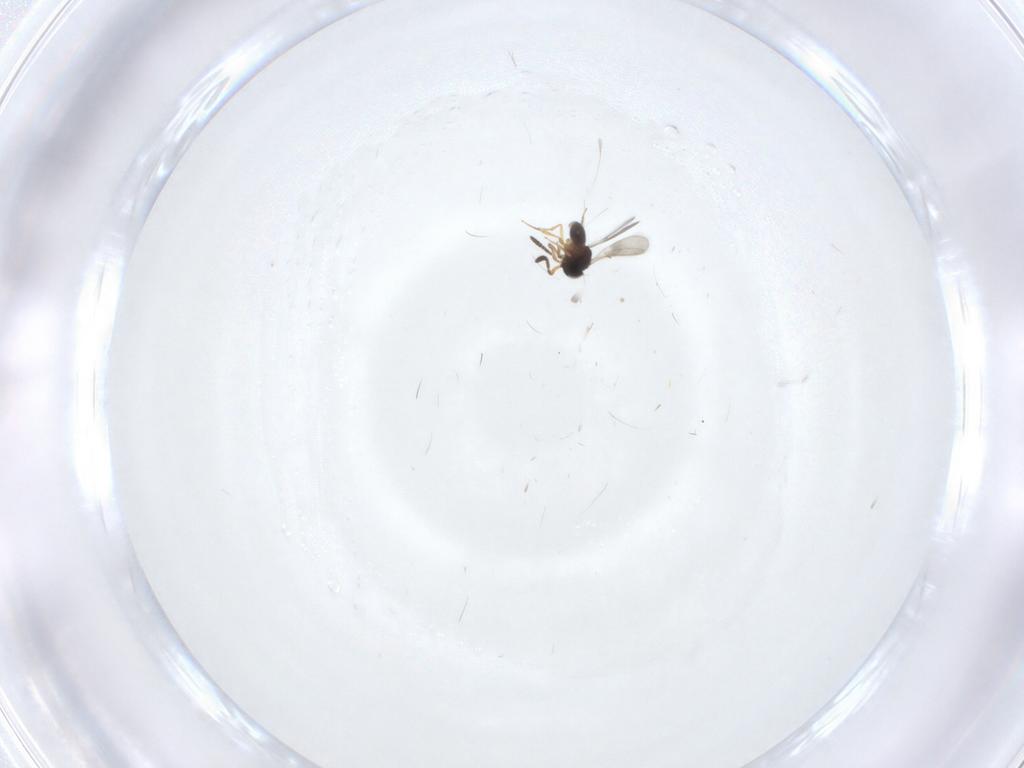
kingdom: Animalia
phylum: Arthropoda
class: Insecta
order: Hymenoptera
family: Scelionidae
